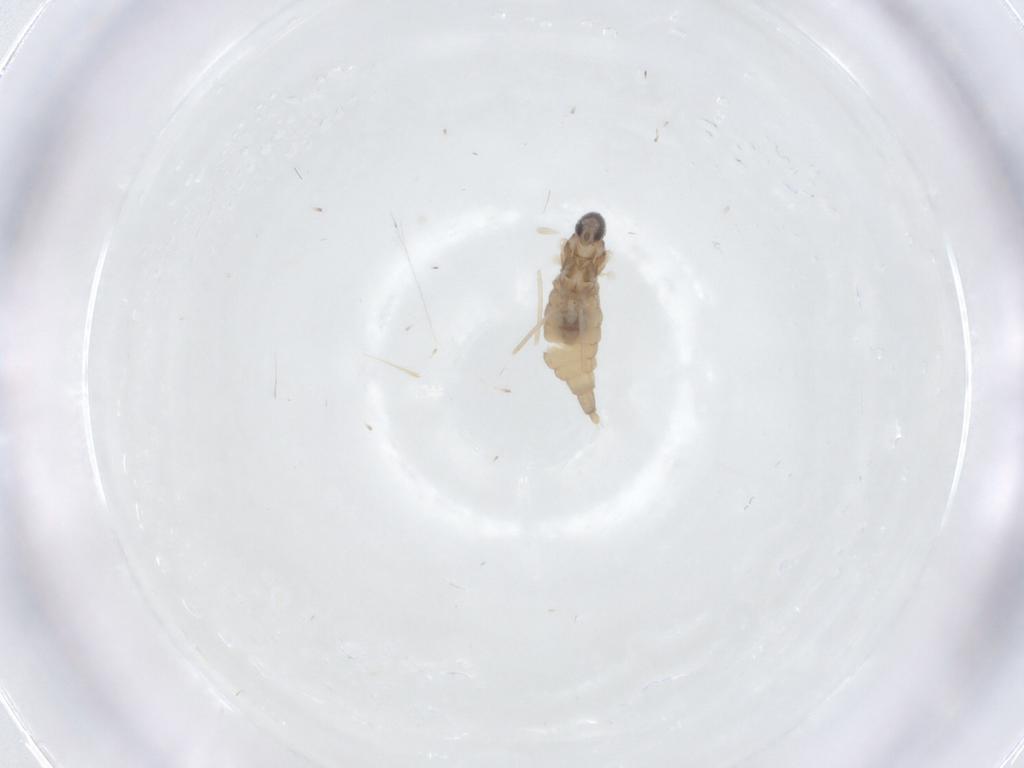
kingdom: Animalia
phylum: Arthropoda
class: Insecta
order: Diptera
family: Cecidomyiidae
